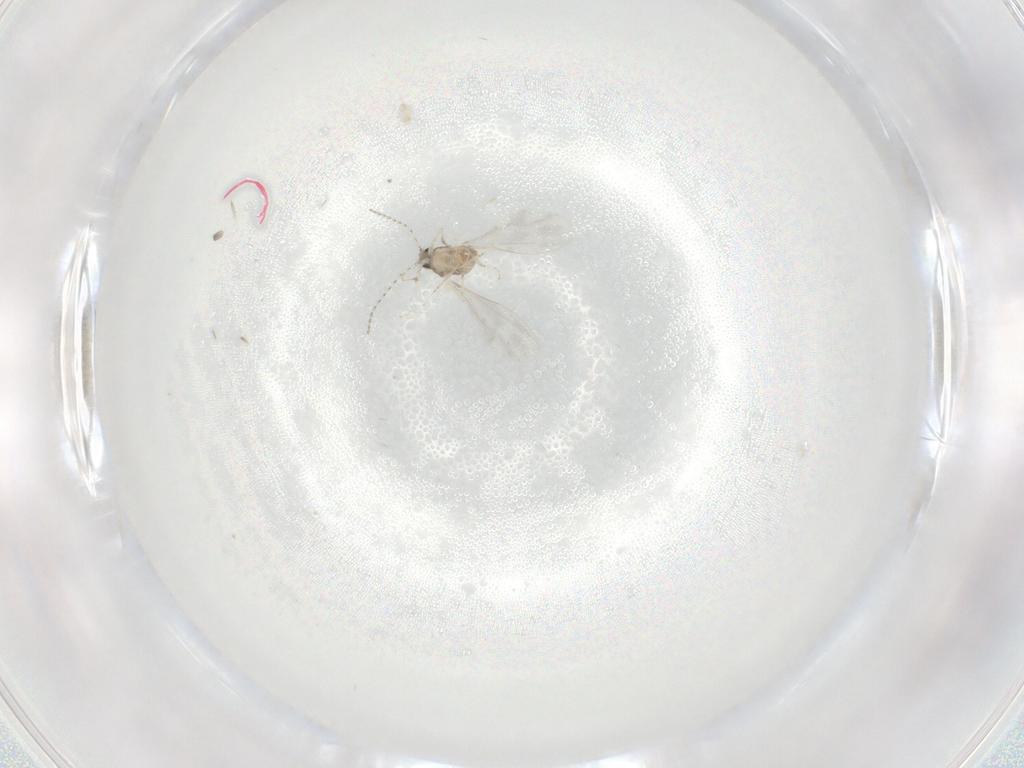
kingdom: Animalia
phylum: Arthropoda
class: Insecta
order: Diptera
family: Cecidomyiidae
